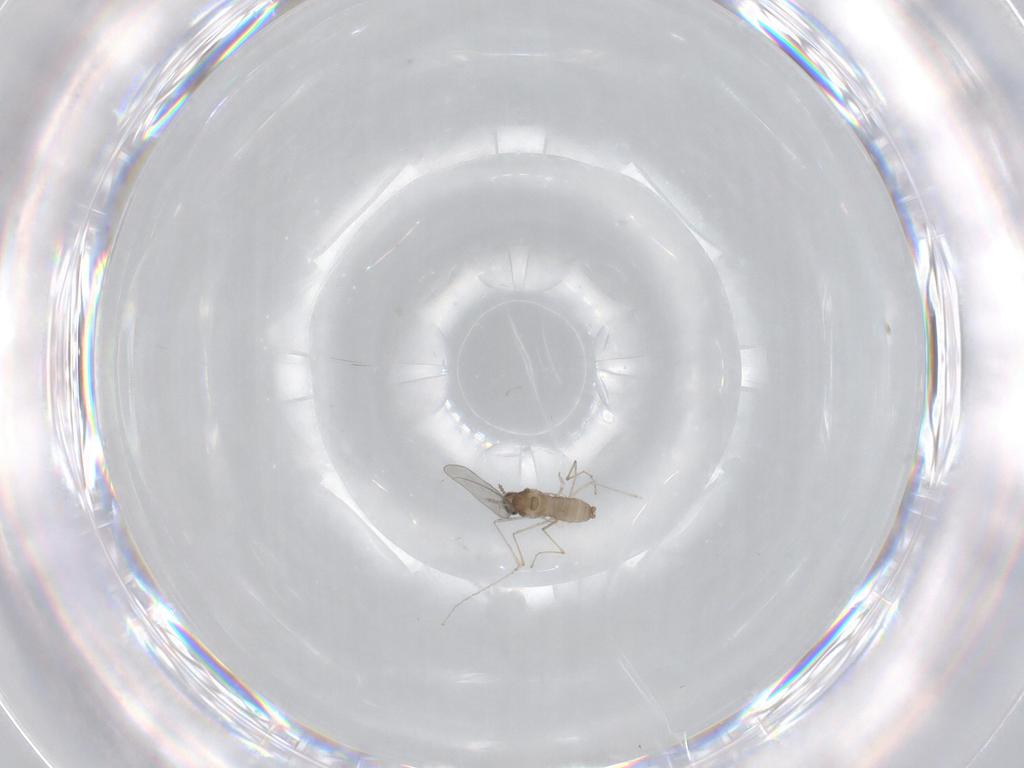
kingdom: Animalia
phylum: Arthropoda
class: Insecta
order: Diptera
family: Cecidomyiidae
